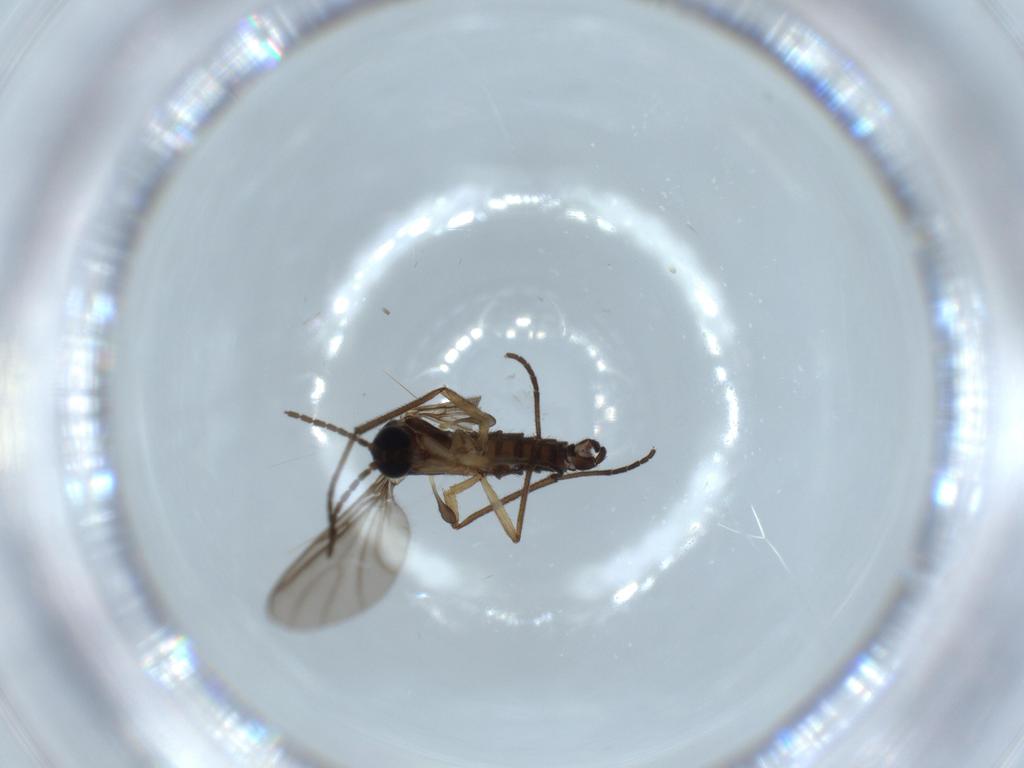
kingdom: Animalia
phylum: Arthropoda
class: Insecta
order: Diptera
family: Sciaridae
